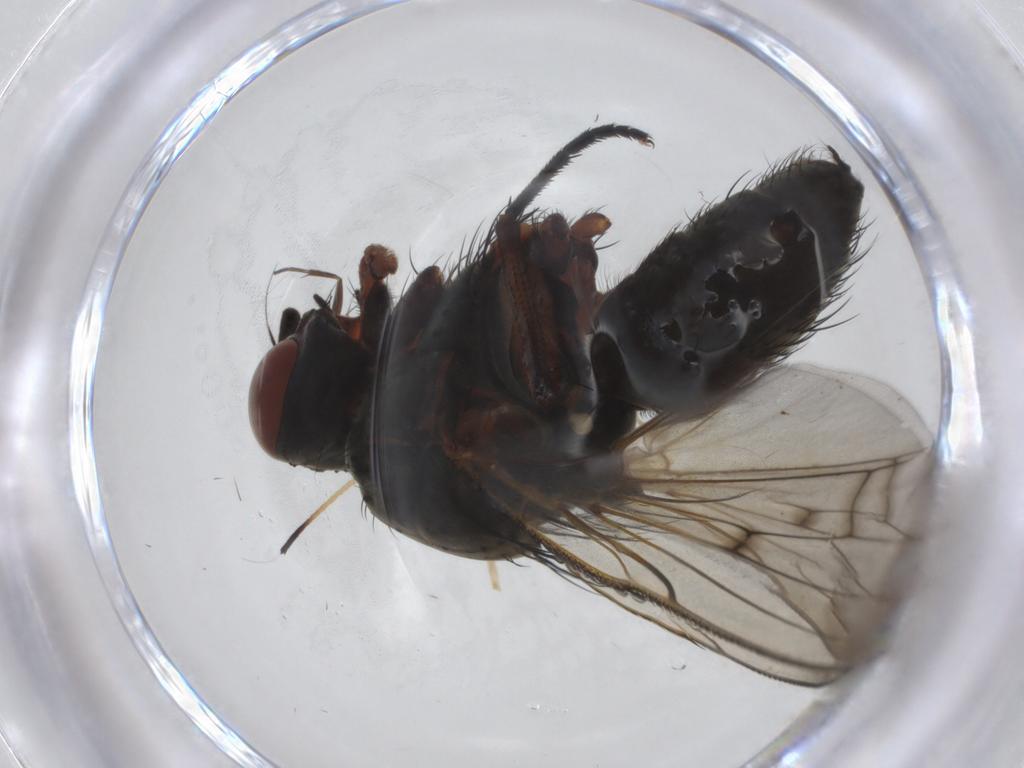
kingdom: Animalia
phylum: Arthropoda
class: Insecta
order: Diptera
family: Anthomyiidae
